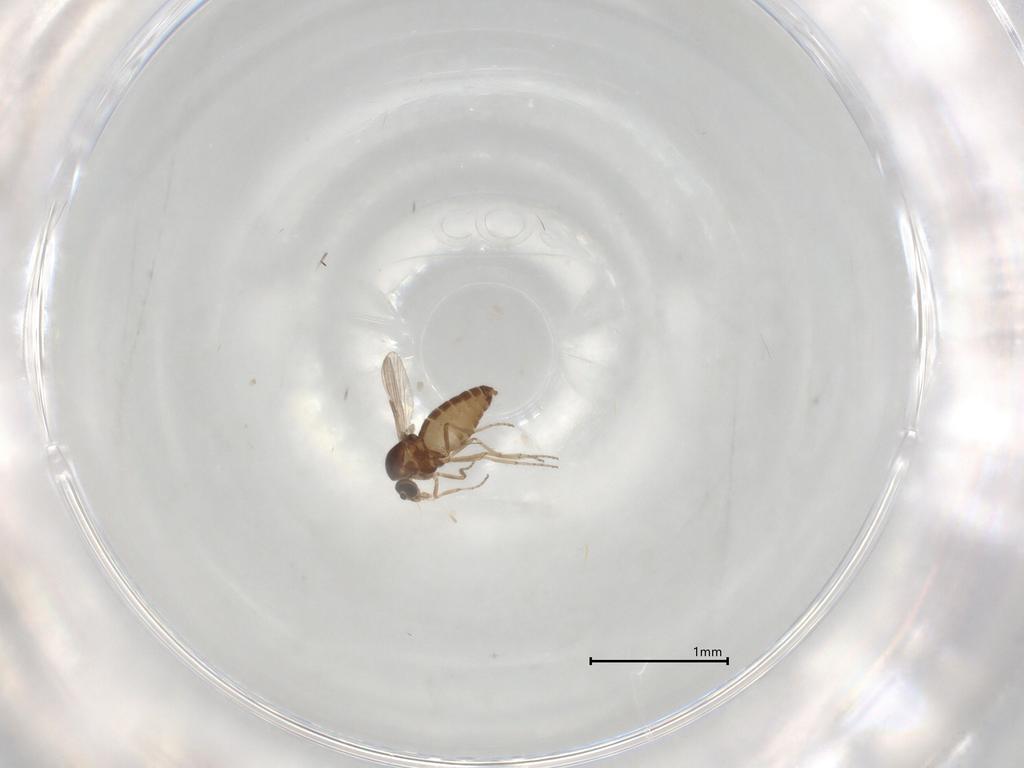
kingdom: Animalia
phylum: Arthropoda
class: Insecta
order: Diptera
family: Ceratopogonidae
